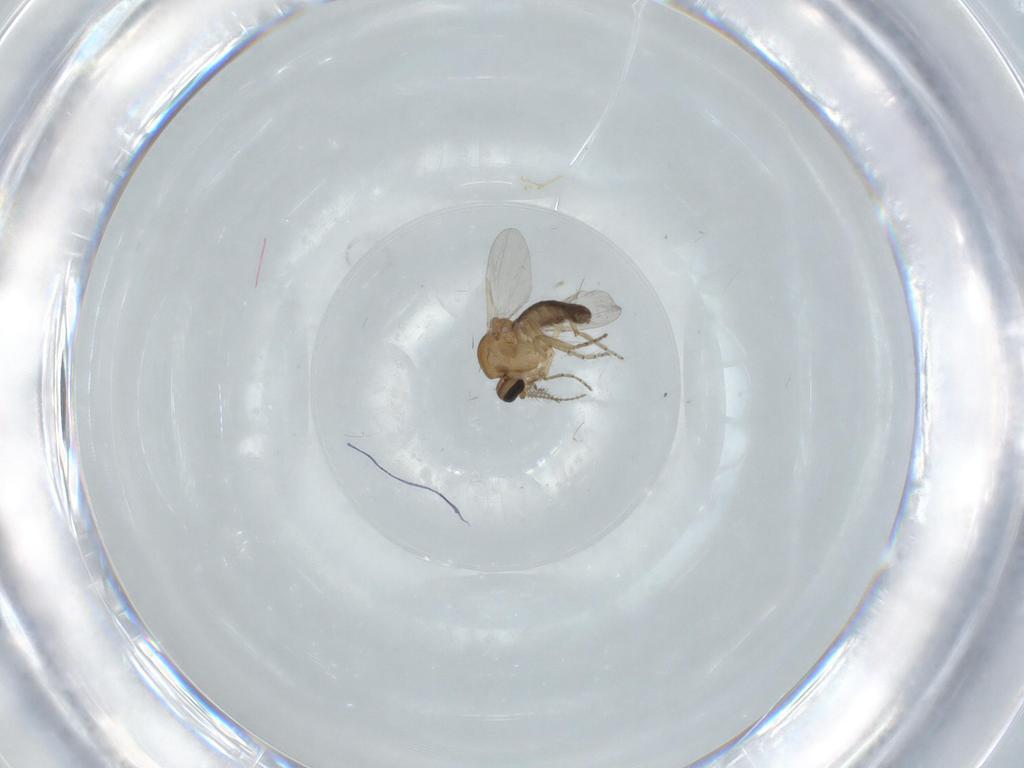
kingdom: Animalia
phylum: Arthropoda
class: Insecta
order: Diptera
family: Ceratopogonidae
